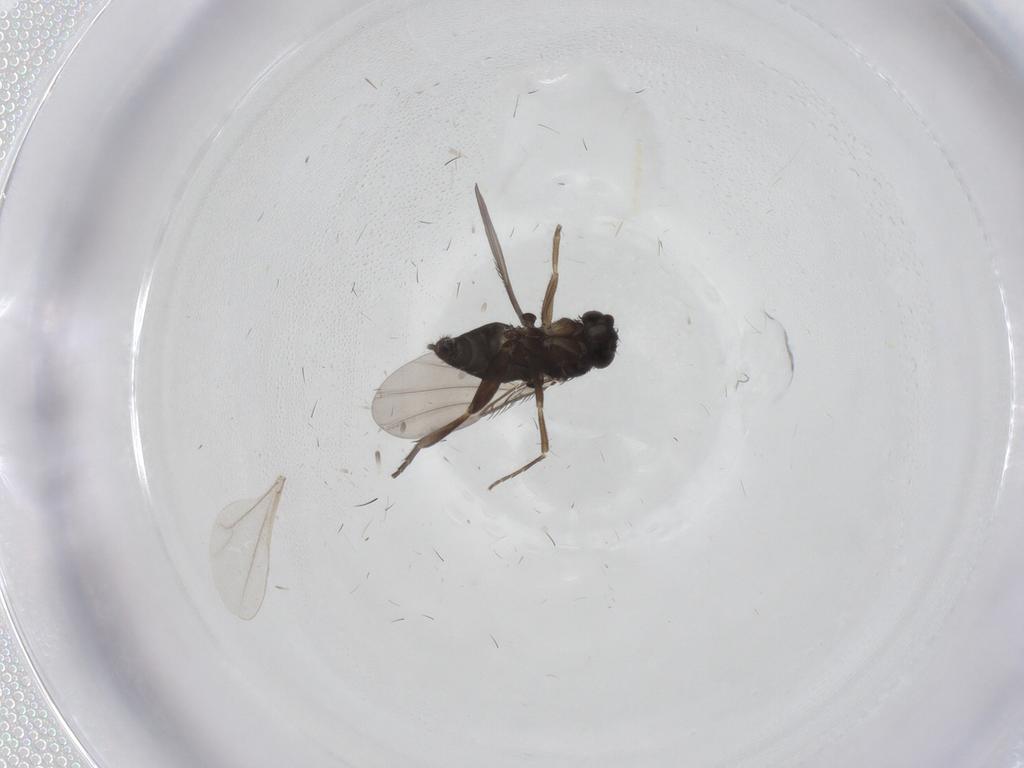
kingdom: Animalia
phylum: Arthropoda
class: Insecta
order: Diptera
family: Phoridae
